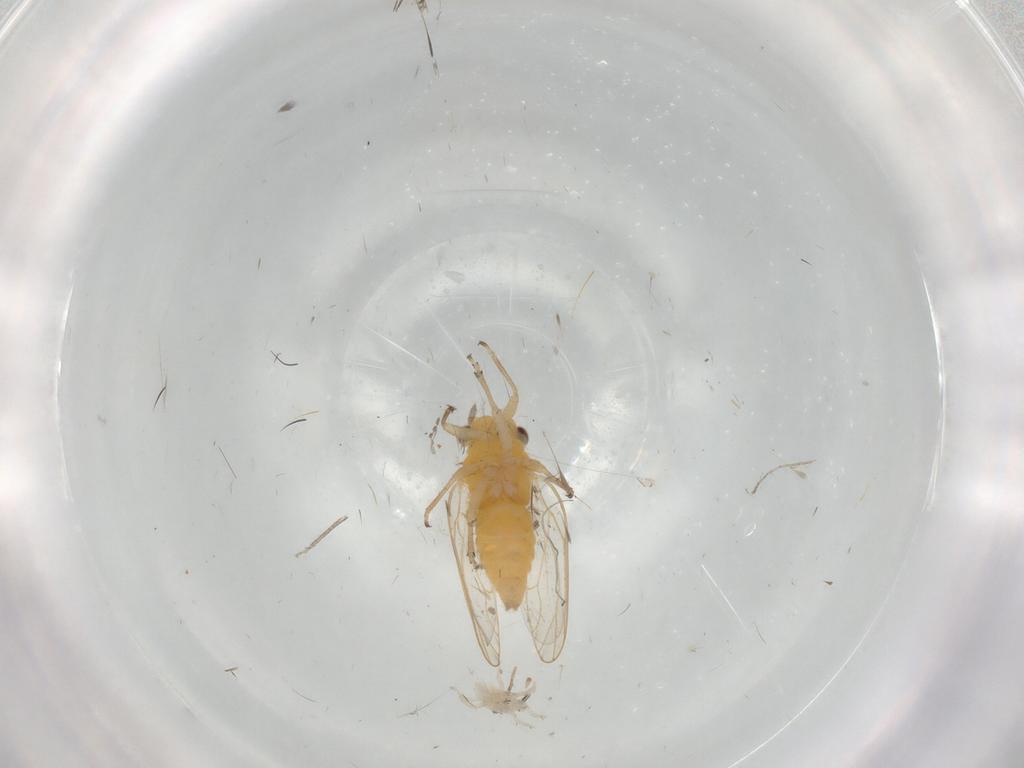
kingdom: Animalia
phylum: Arthropoda
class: Arachnida
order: Mesostigmata
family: Blattisociidae
